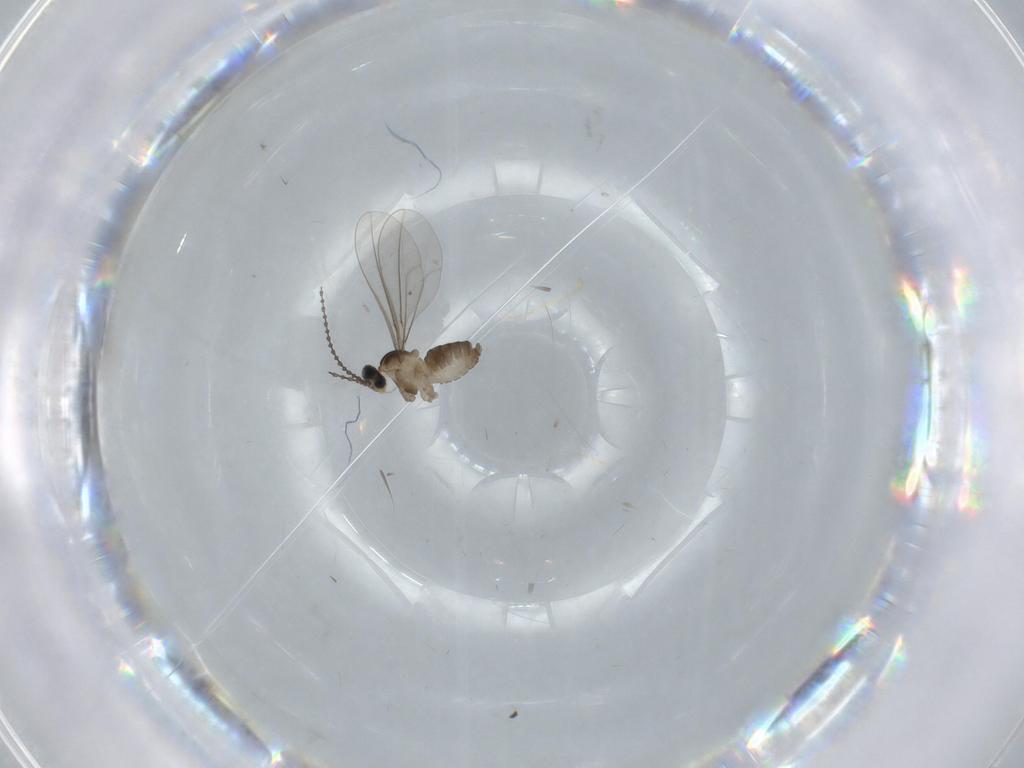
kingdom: Animalia
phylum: Arthropoda
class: Insecta
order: Diptera
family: Cecidomyiidae
